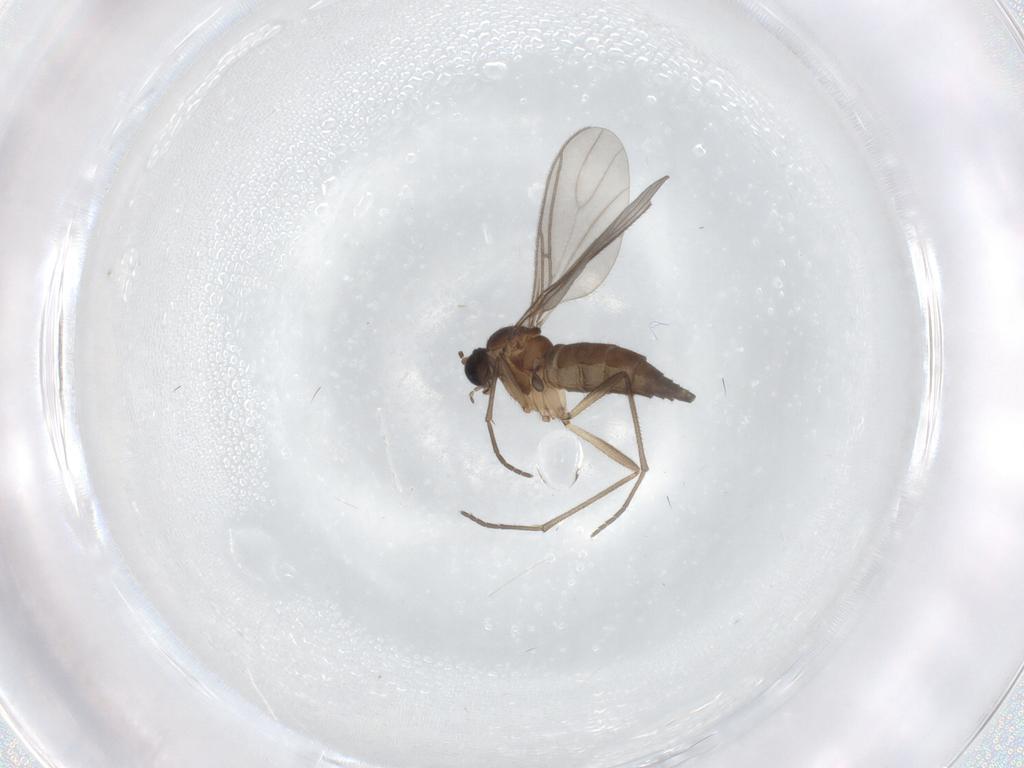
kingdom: Animalia
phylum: Arthropoda
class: Insecta
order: Diptera
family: Sciaridae
